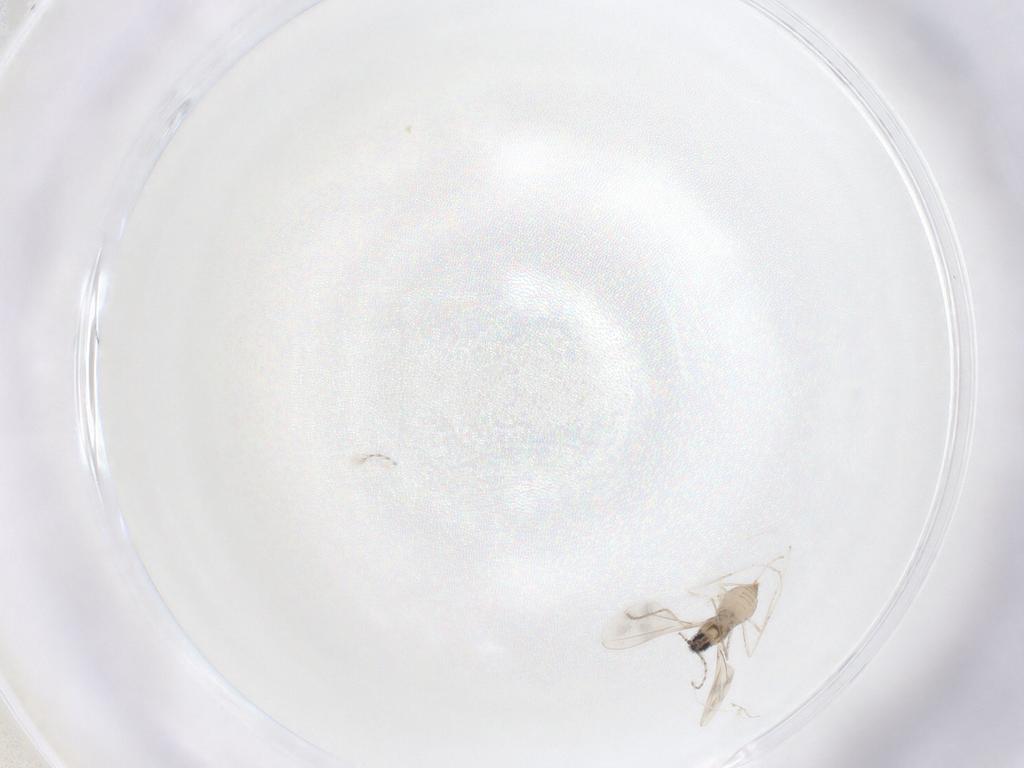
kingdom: Animalia
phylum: Arthropoda
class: Insecta
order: Diptera
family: Cecidomyiidae
